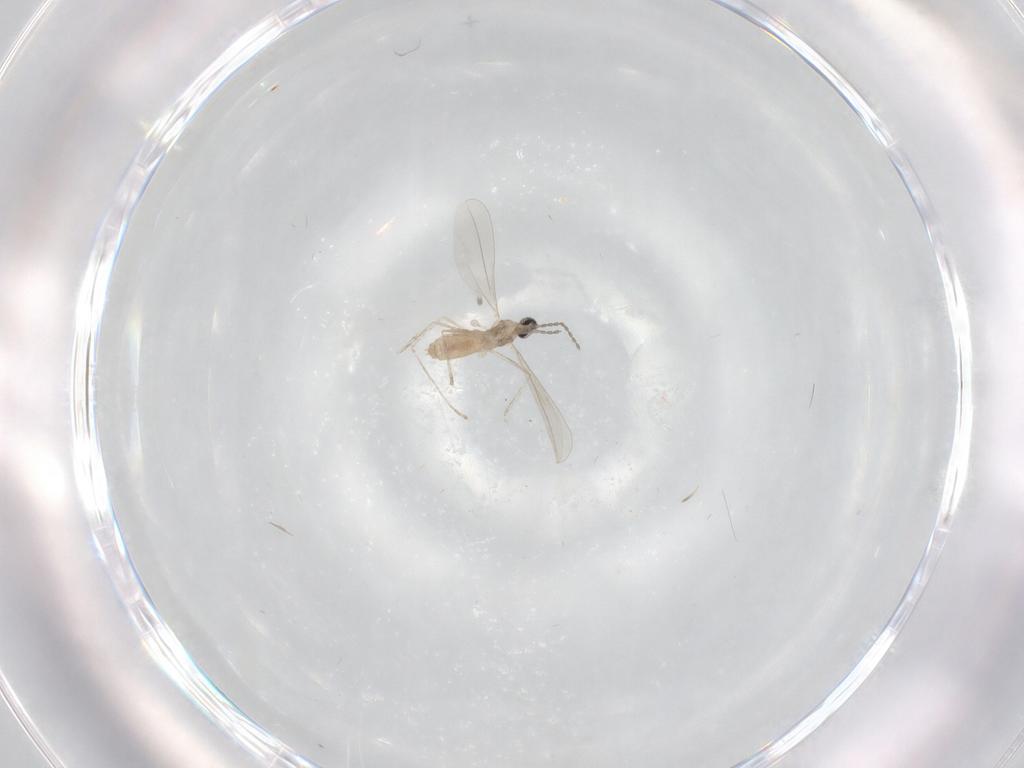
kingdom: Animalia
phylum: Arthropoda
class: Insecta
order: Diptera
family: Cecidomyiidae
